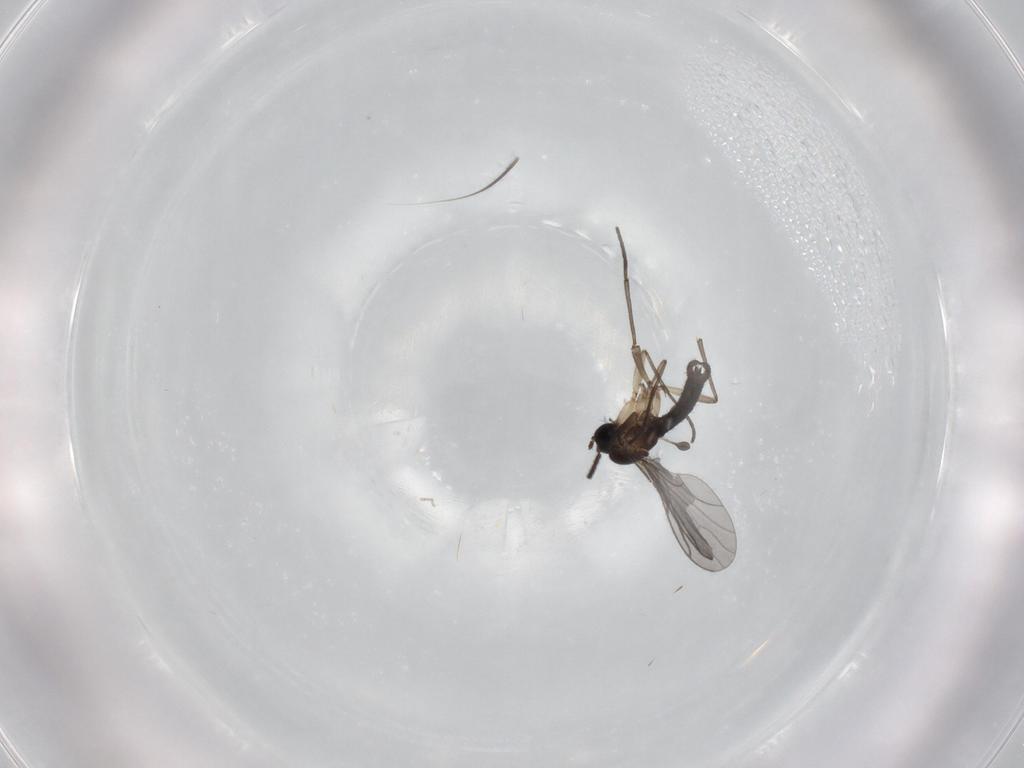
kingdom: Animalia
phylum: Arthropoda
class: Insecta
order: Diptera
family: Sciaridae
